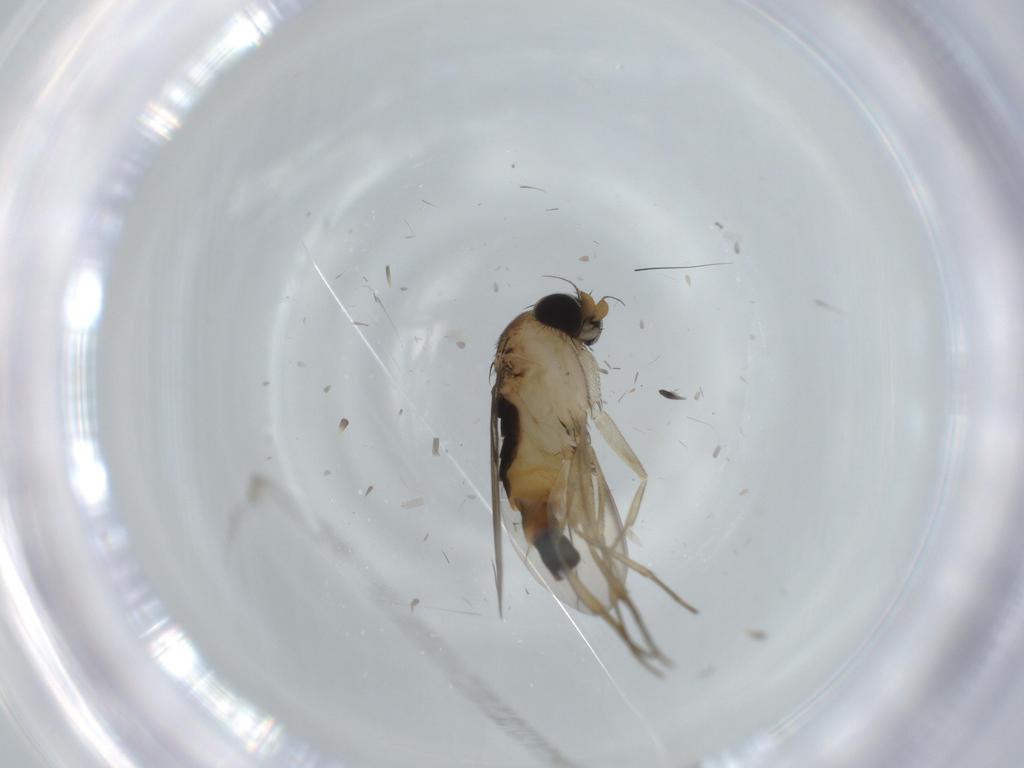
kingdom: Animalia
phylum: Arthropoda
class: Insecta
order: Diptera
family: Phoridae
